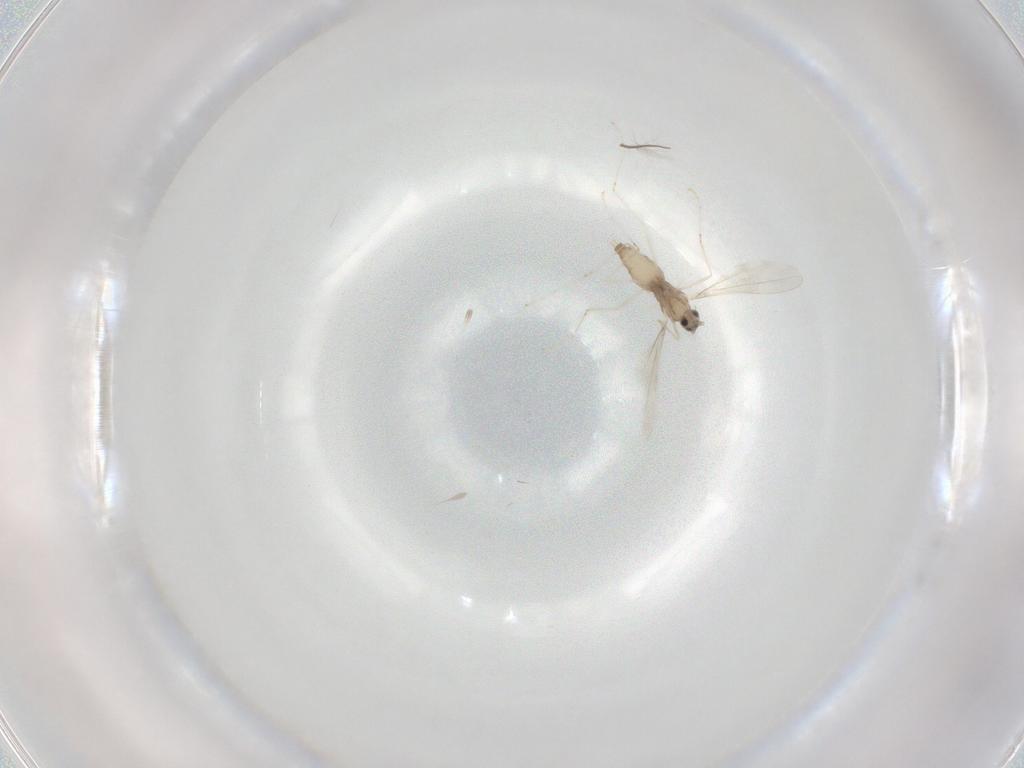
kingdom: Animalia
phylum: Arthropoda
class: Insecta
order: Diptera
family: Cecidomyiidae
